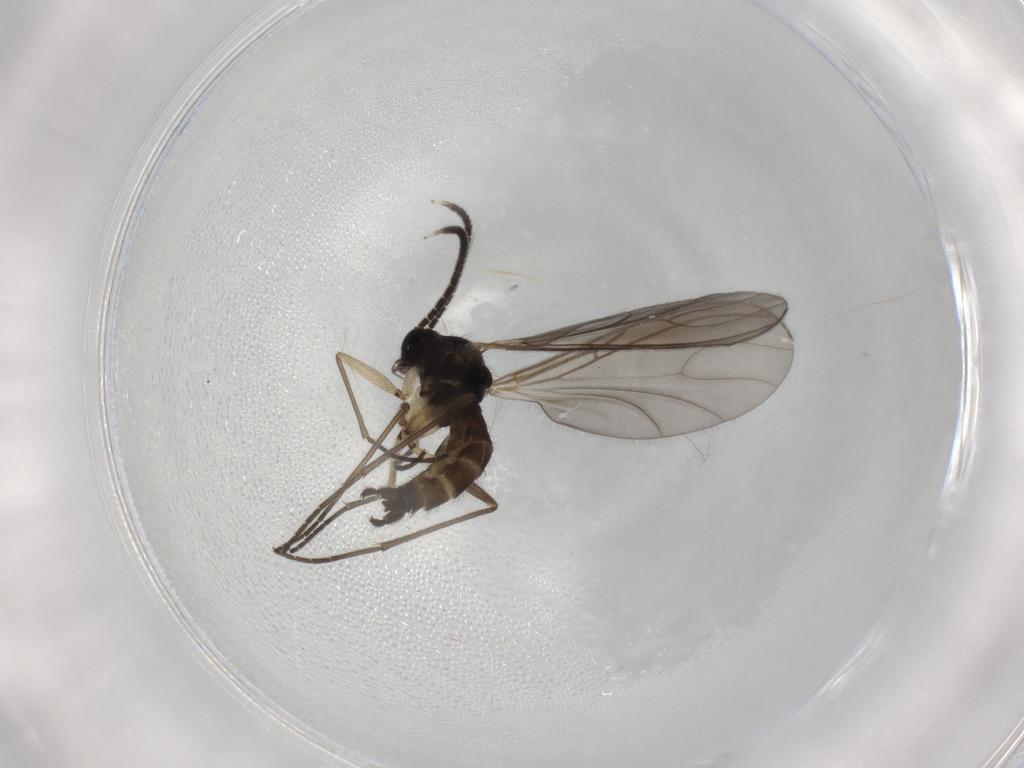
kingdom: Animalia
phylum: Arthropoda
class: Insecta
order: Diptera
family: Sciaridae
